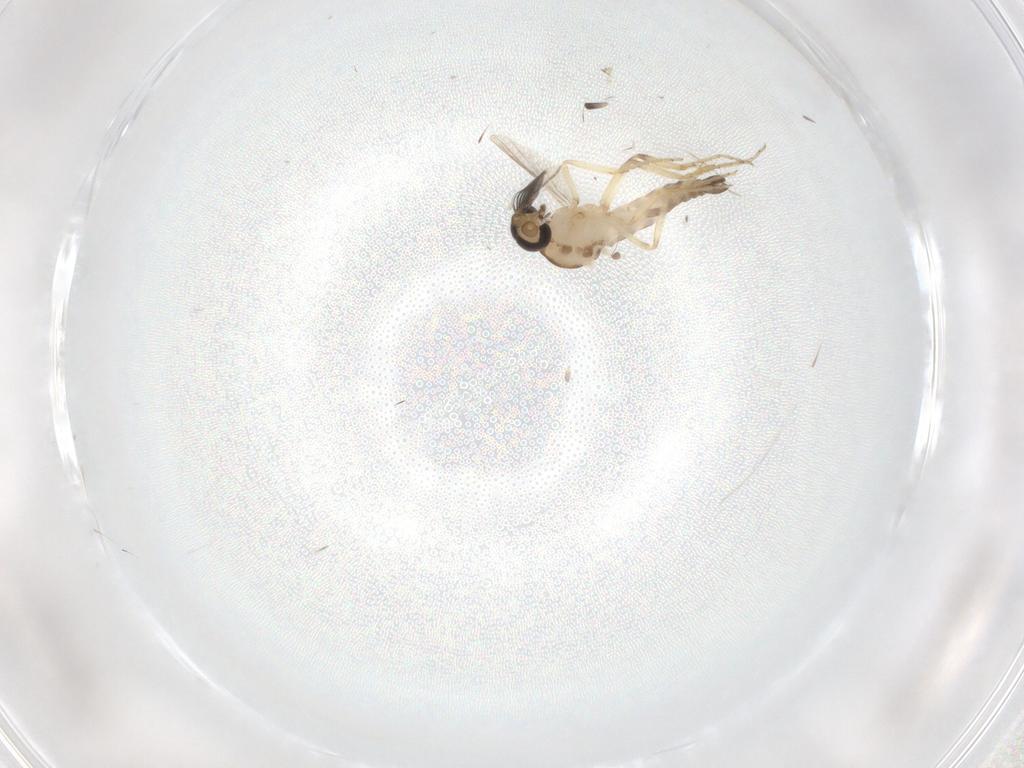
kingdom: Animalia
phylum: Arthropoda
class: Insecta
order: Diptera
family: Ceratopogonidae
